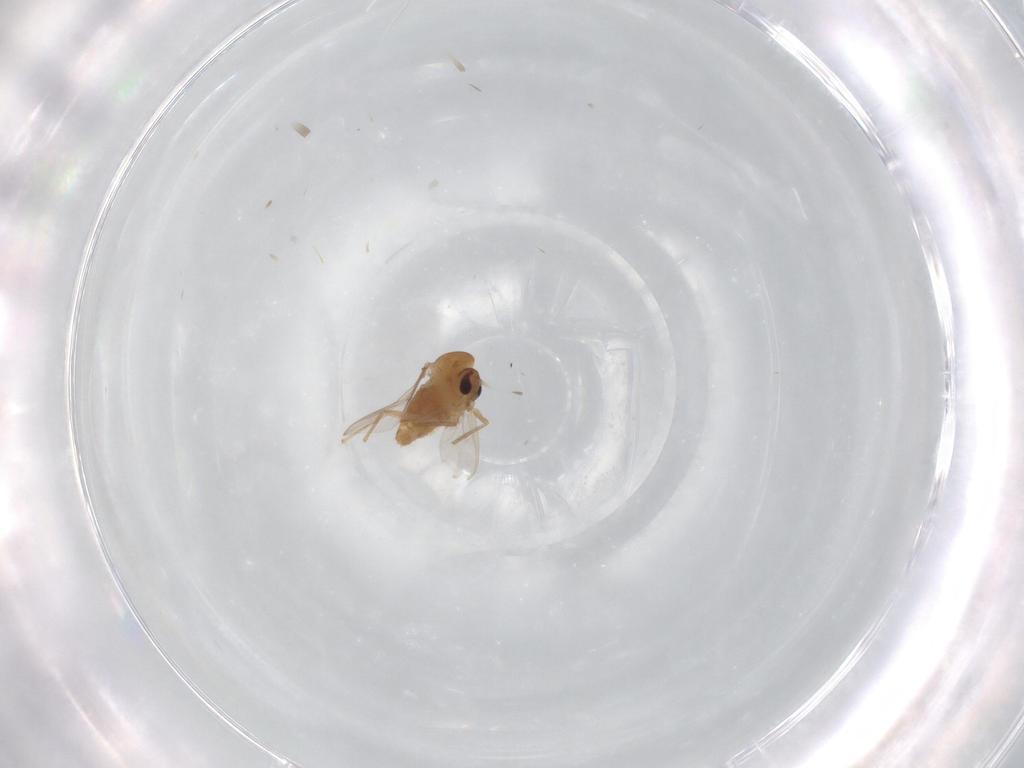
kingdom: Animalia
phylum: Arthropoda
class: Insecta
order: Diptera
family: Chironomidae
